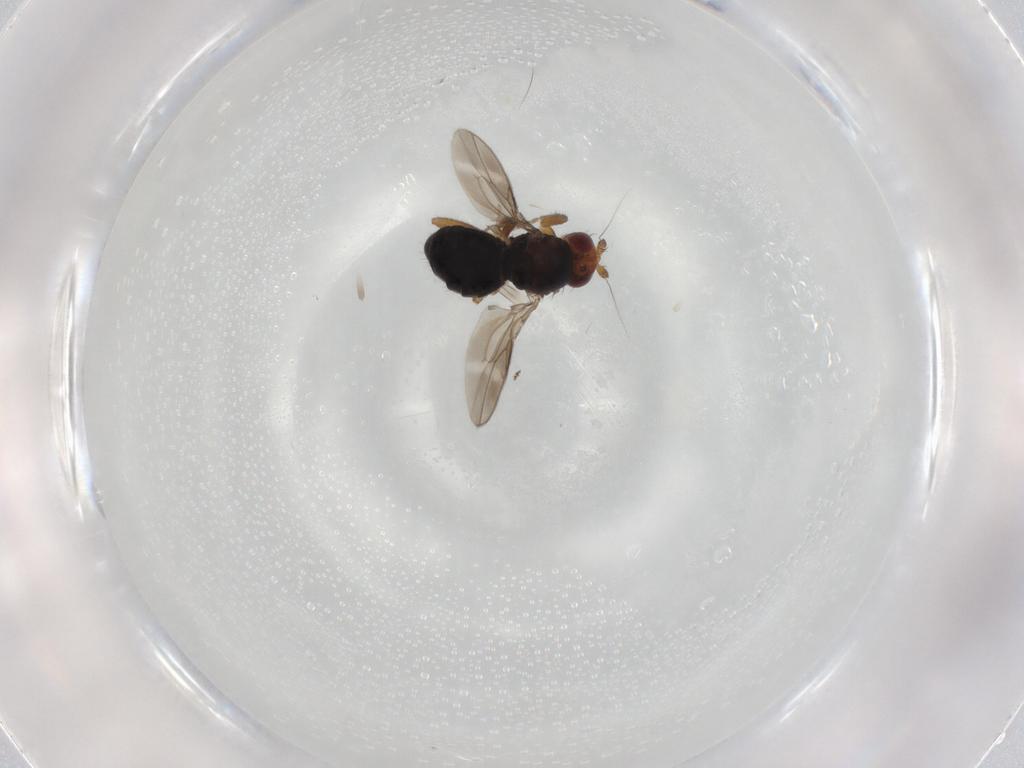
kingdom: Animalia
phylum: Arthropoda
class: Insecta
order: Diptera
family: Sphaeroceridae
